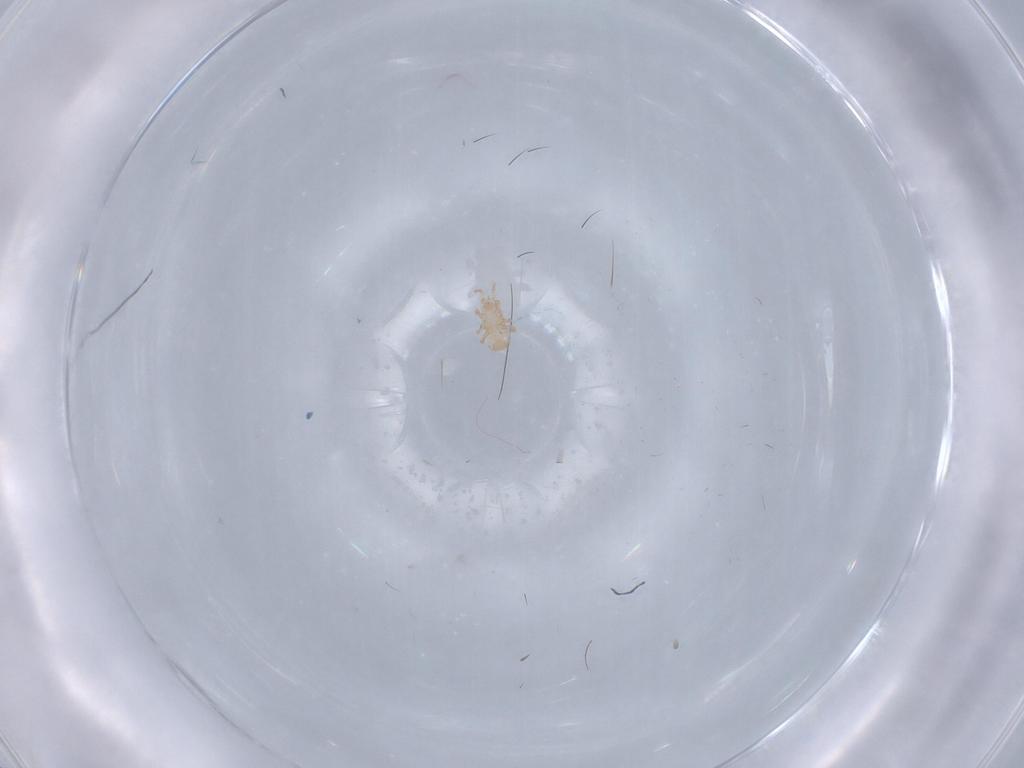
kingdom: Animalia
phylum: Arthropoda
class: Arachnida
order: Mesostigmata
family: Digamasellidae
